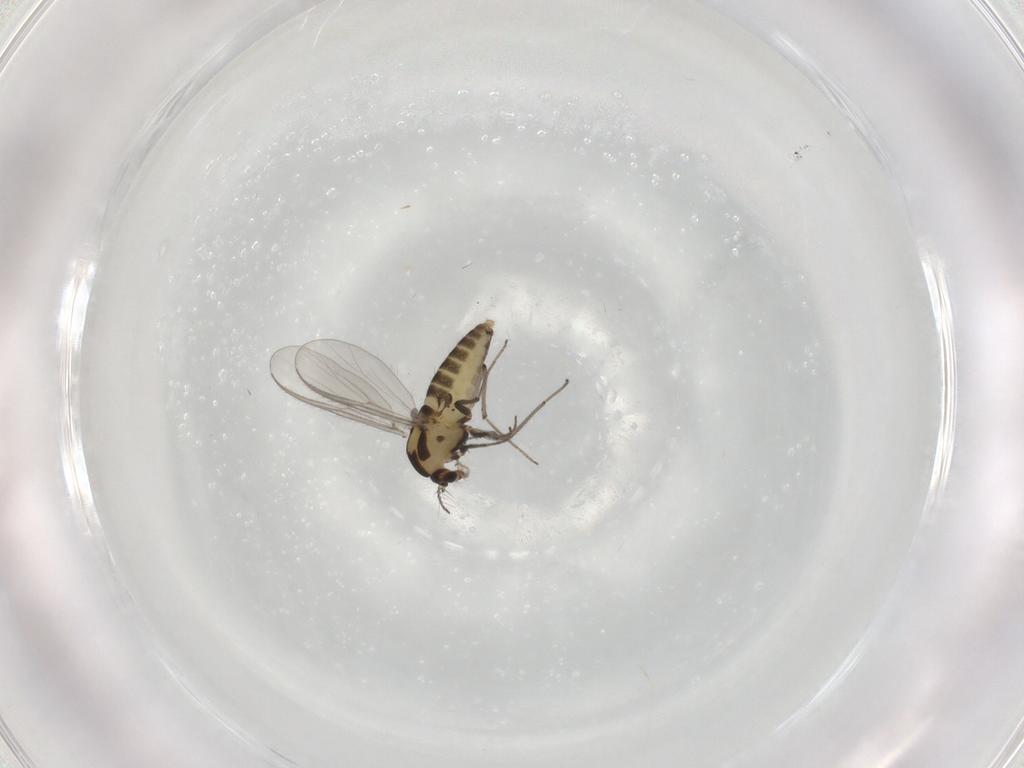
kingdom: Animalia
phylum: Arthropoda
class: Insecta
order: Diptera
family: Chironomidae
